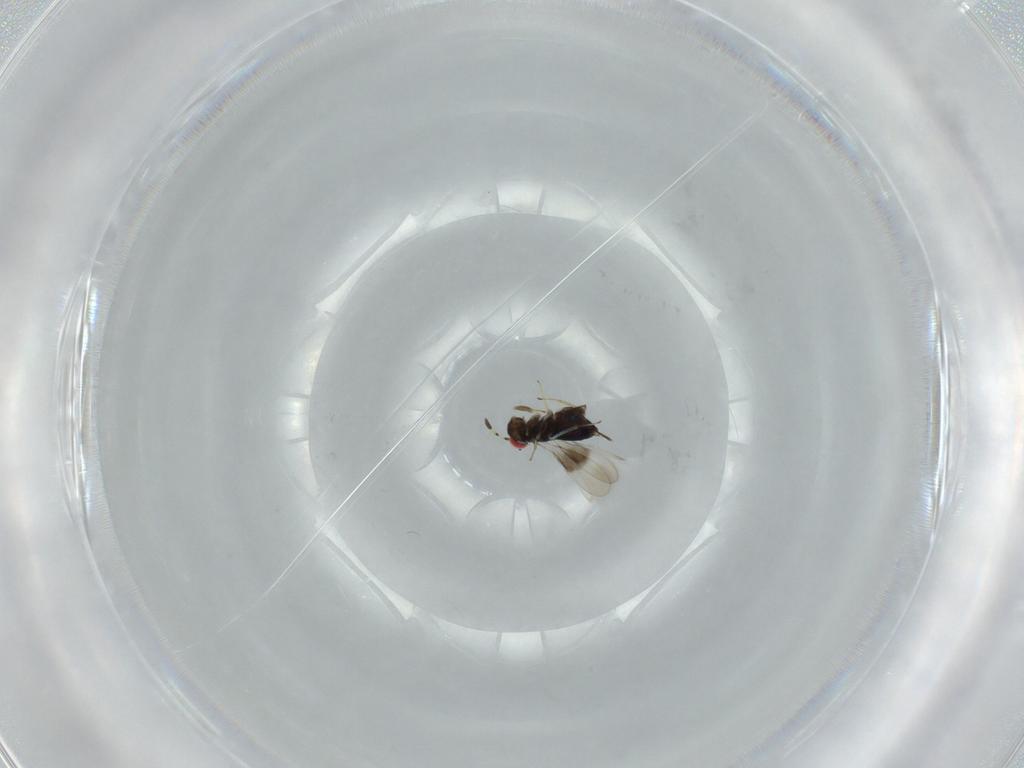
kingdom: Animalia
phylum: Arthropoda
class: Insecta
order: Hymenoptera
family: Azotidae
